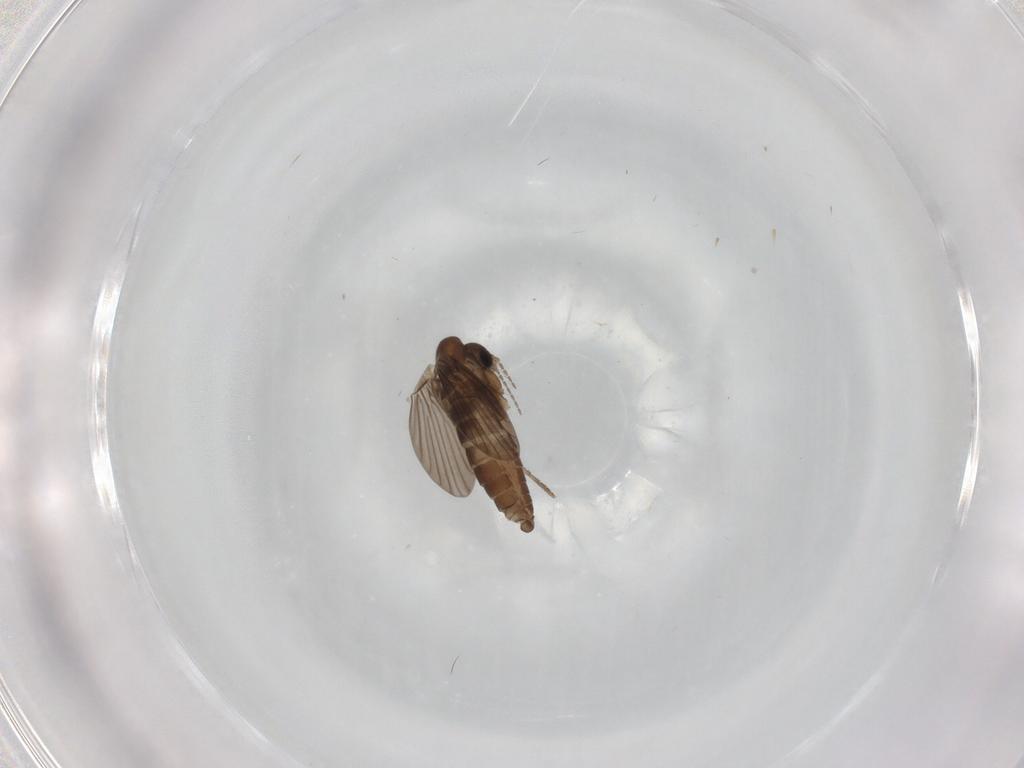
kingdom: Animalia
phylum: Arthropoda
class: Insecta
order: Diptera
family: Psychodidae
